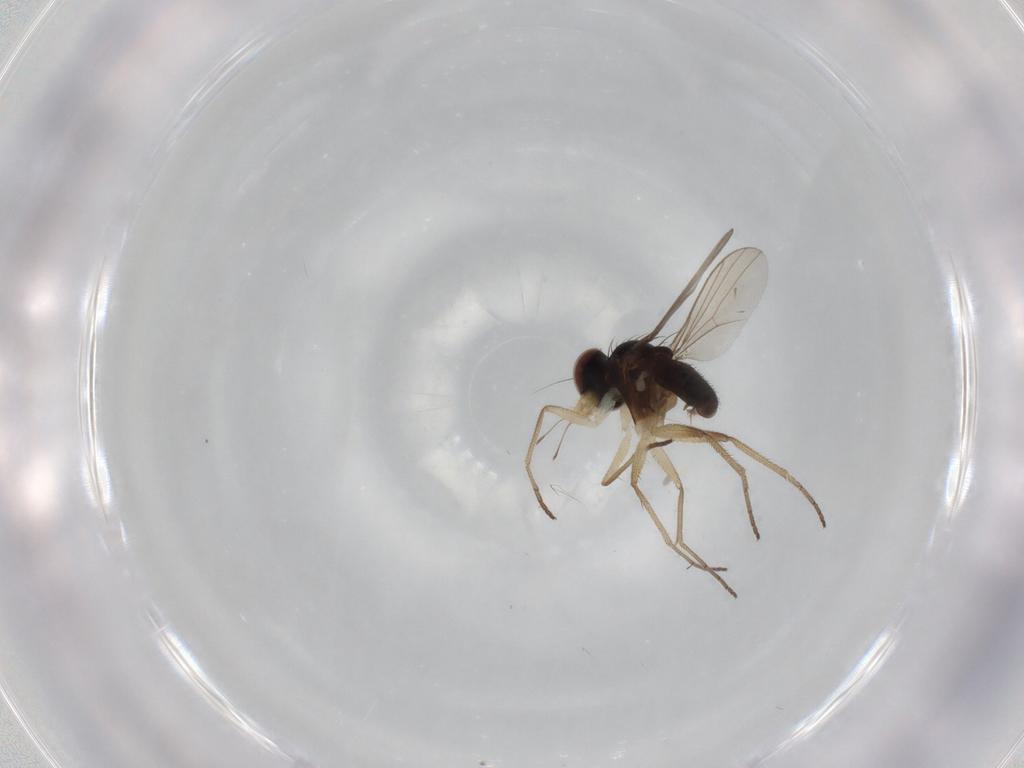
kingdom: Animalia
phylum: Arthropoda
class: Insecta
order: Diptera
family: Dolichopodidae
